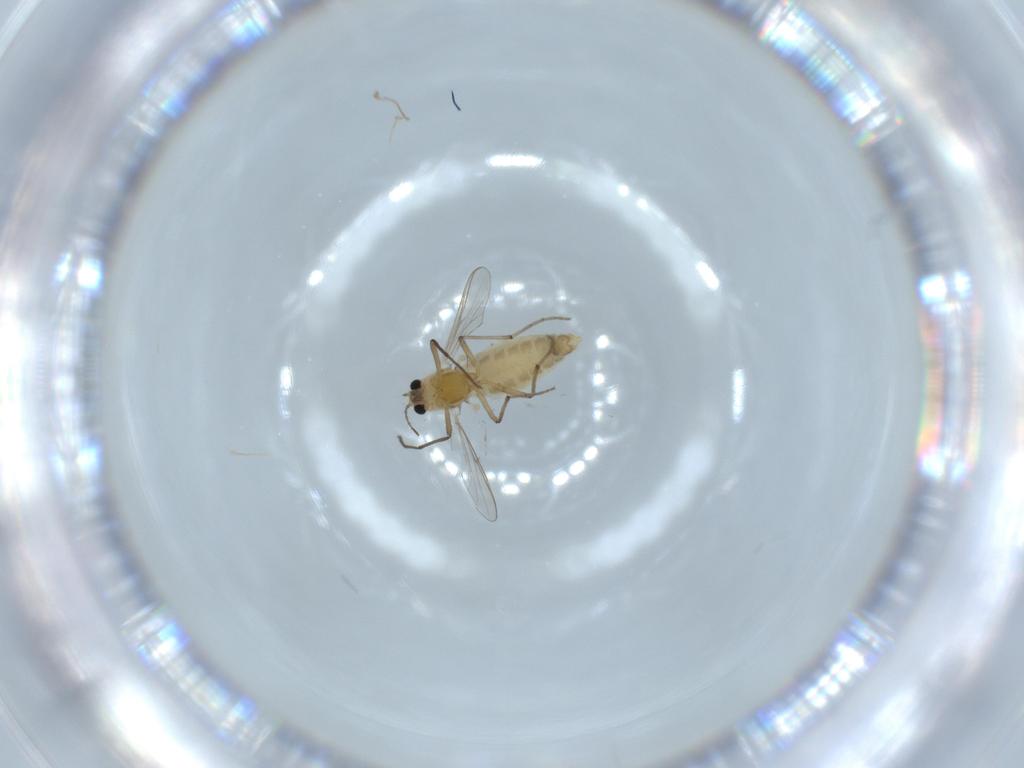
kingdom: Animalia
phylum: Arthropoda
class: Insecta
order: Diptera
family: Chironomidae
